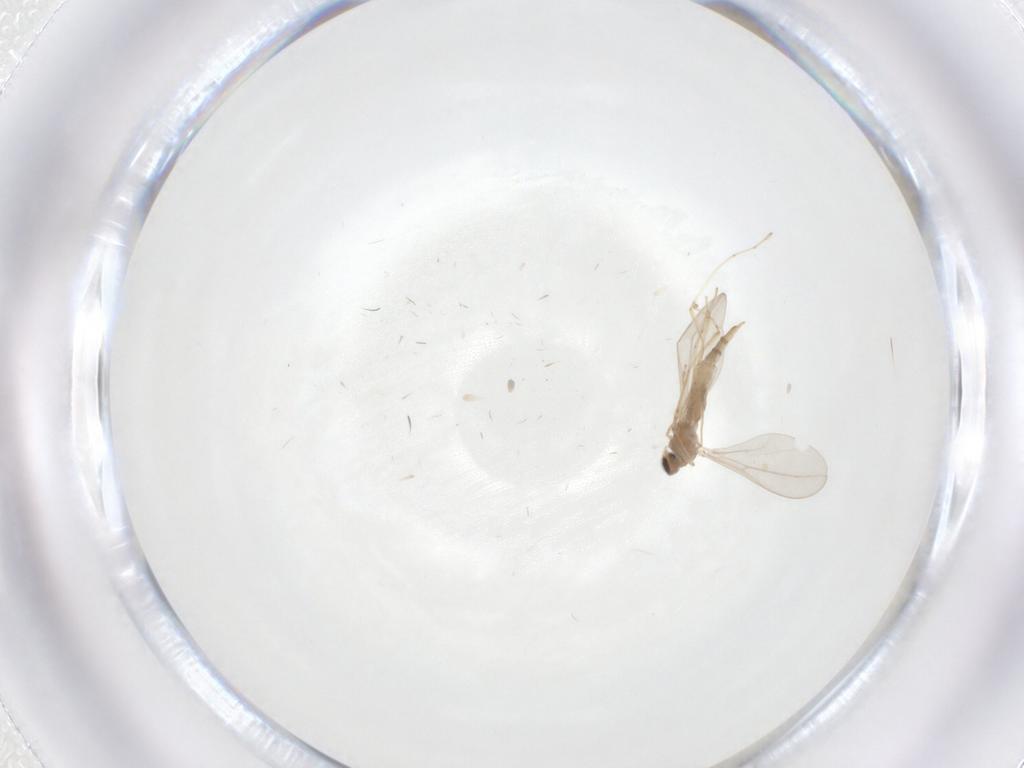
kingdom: Animalia
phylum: Arthropoda
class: Insecta
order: Diptera
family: Cecidomyiidae
